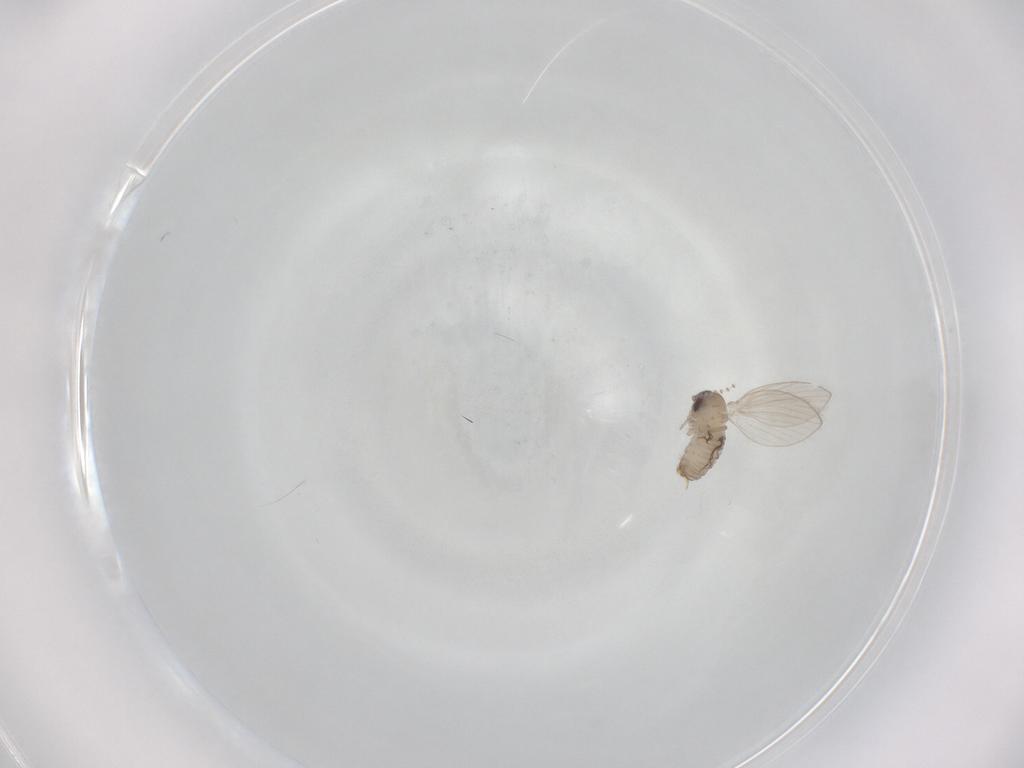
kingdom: Animalia
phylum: Arthropoda
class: Insecta
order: Diptera
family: Psychodidae
